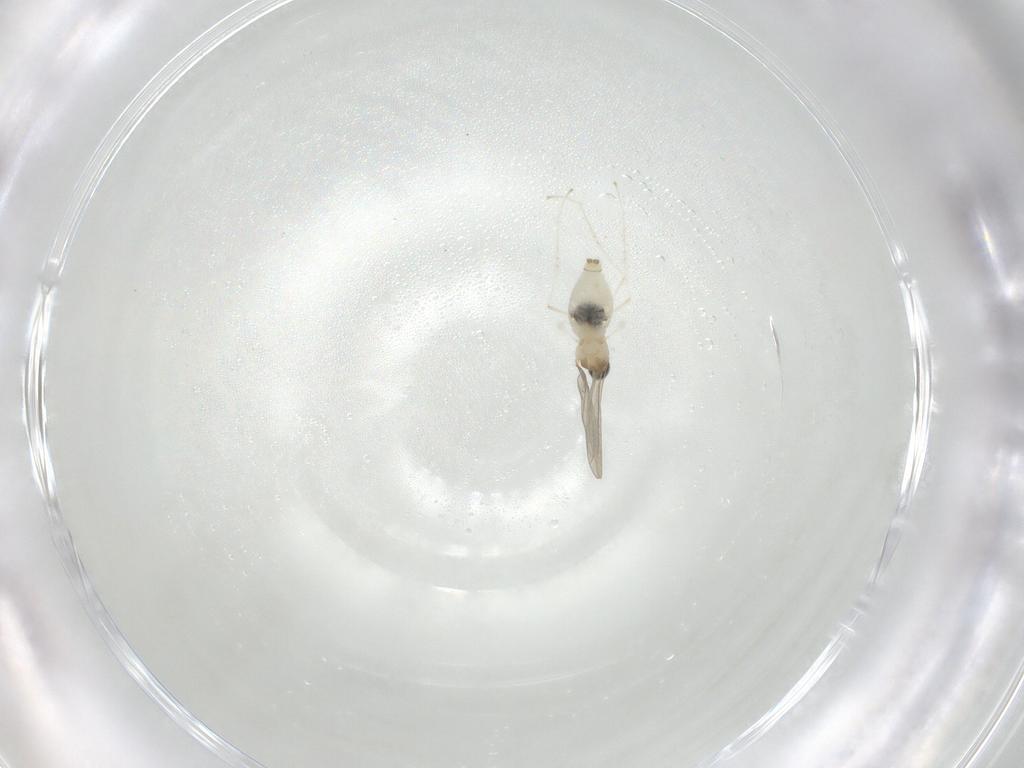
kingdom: Animalia
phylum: Arthropoda
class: Insecta
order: Diptera
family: Cecidomyiidae
